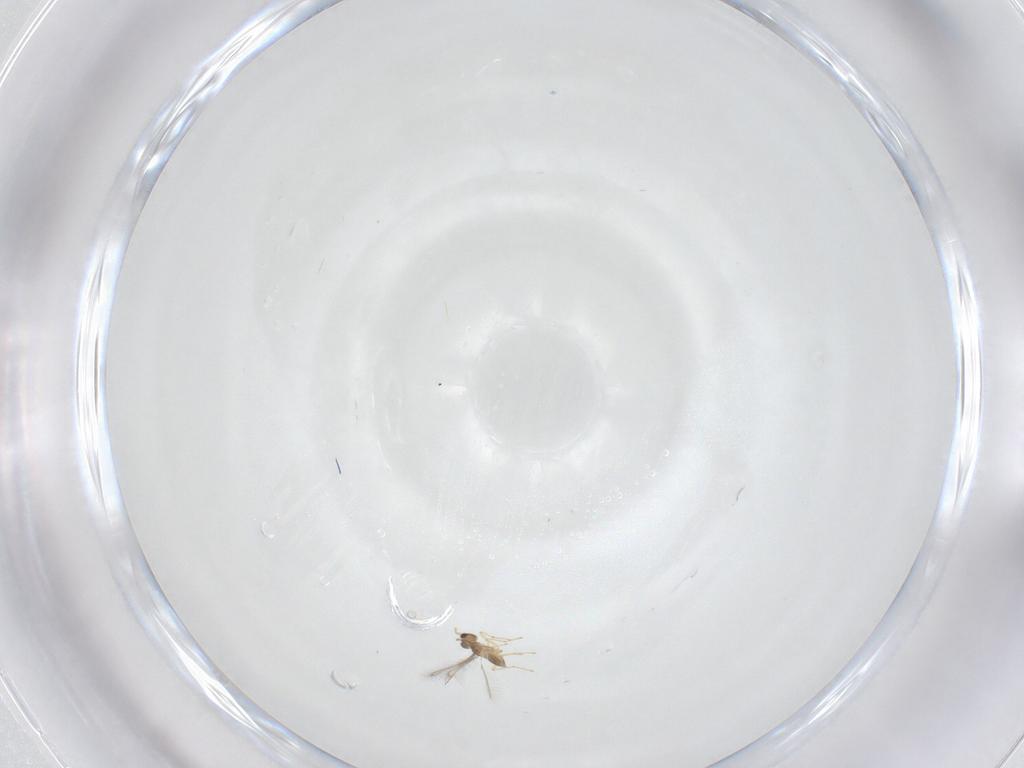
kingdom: Animalia
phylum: Arthropoda
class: Insecta
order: Hymenoptera
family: Mymaridae
